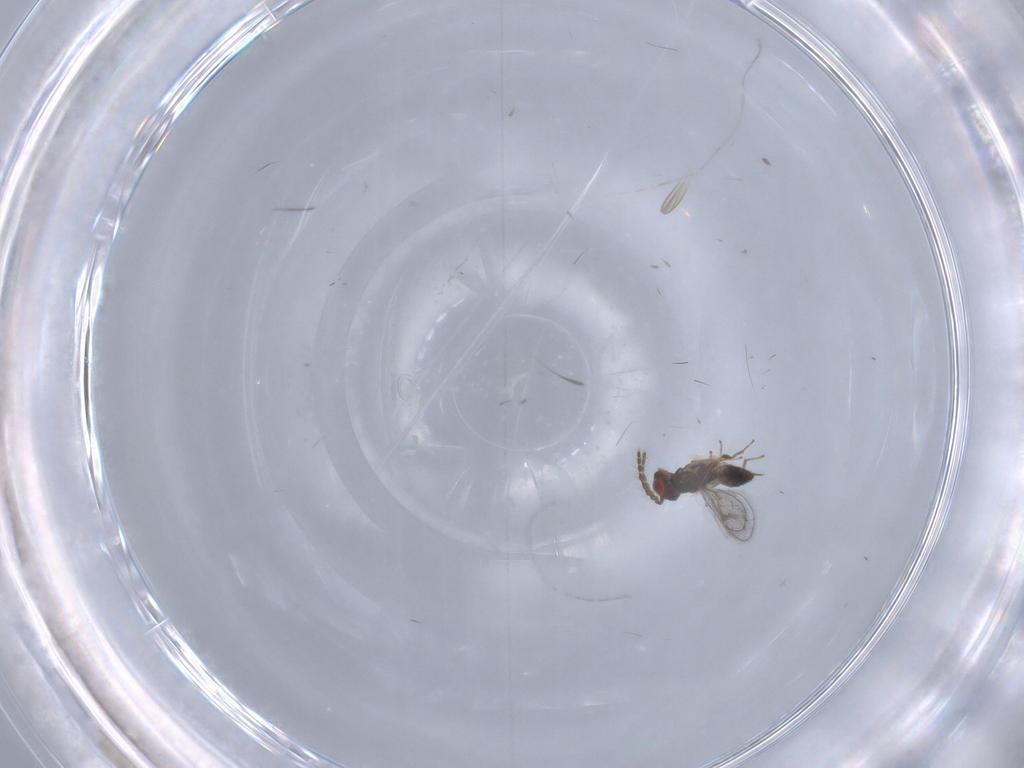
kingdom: Animalia
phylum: Arthropoda
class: Insecta
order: Hymenoptera
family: Eulophidae
